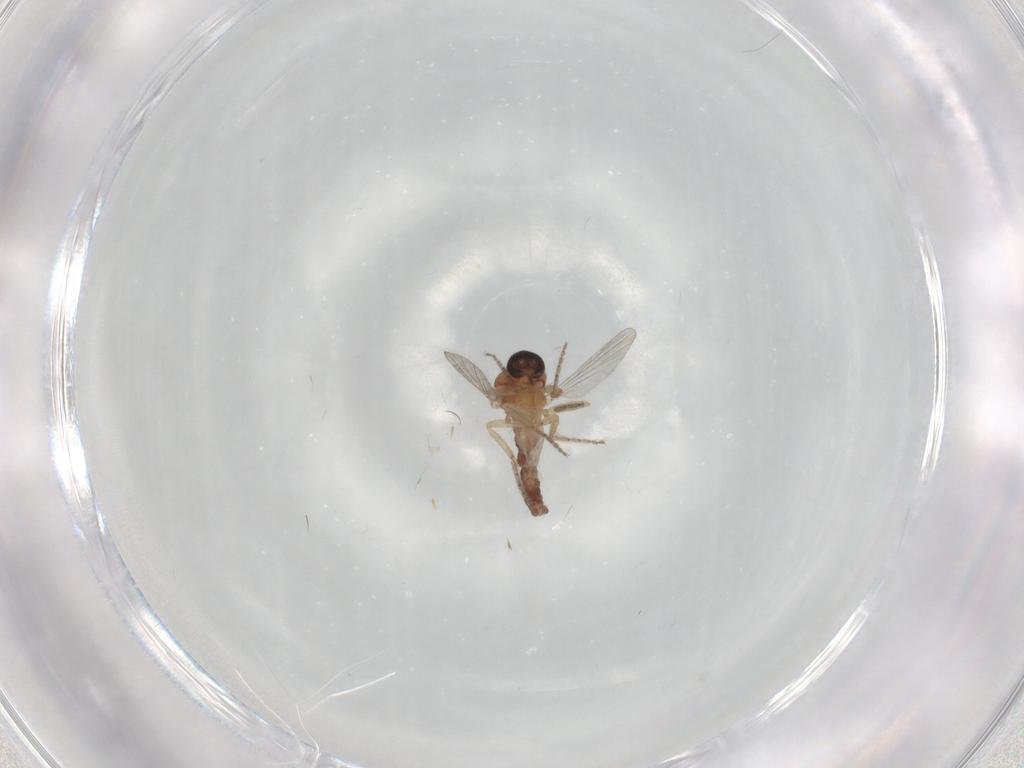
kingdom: Animalia
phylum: Arthropoda
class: Insecta
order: Diptera
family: Ceratopogonidae
